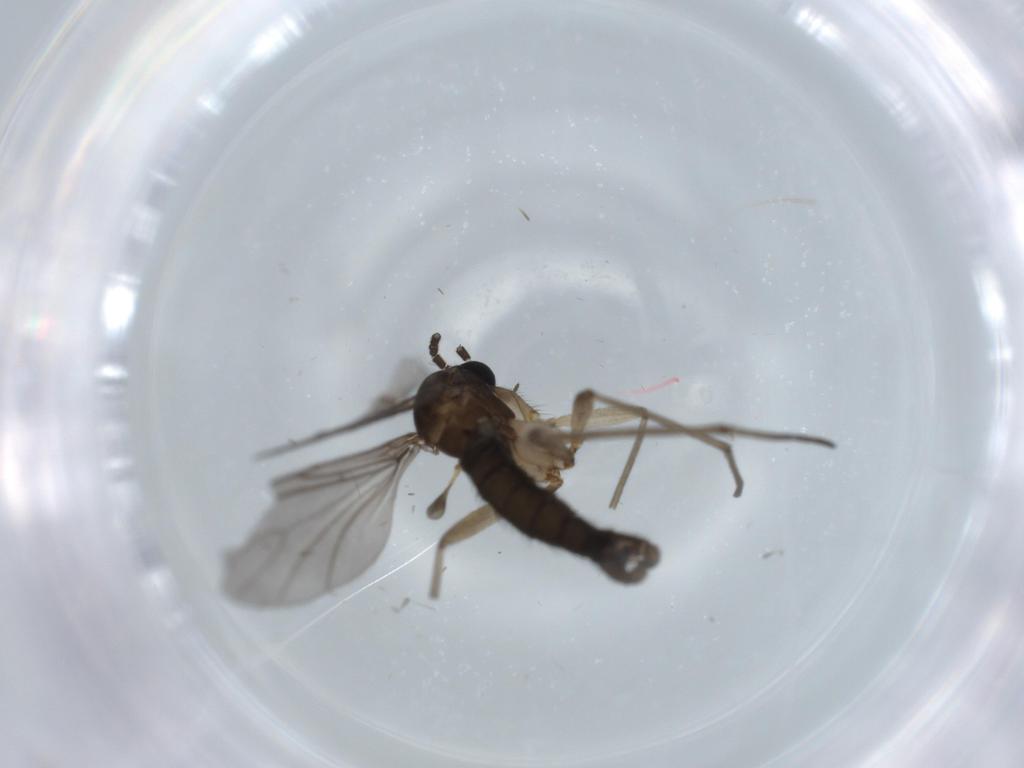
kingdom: Animalia
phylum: Arthropoda
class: Insecta
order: Diptera
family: Sciaridae
